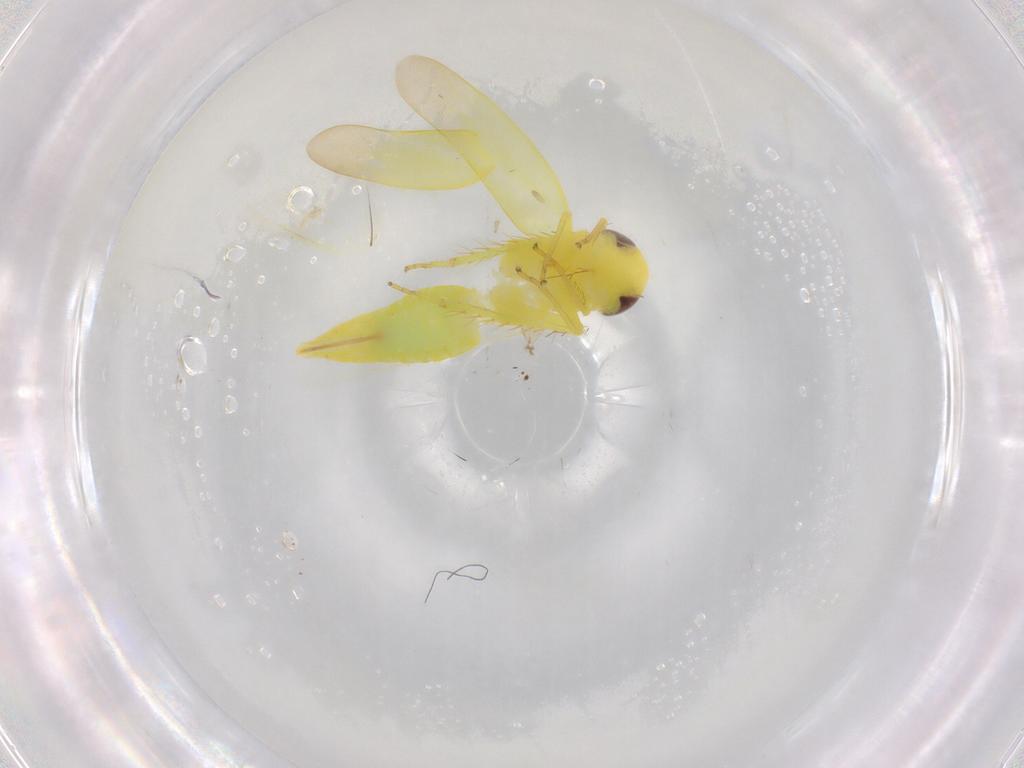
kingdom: Animalia
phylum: Arthropoda
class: Insecta
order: Hemiptera
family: Cicadellidae
